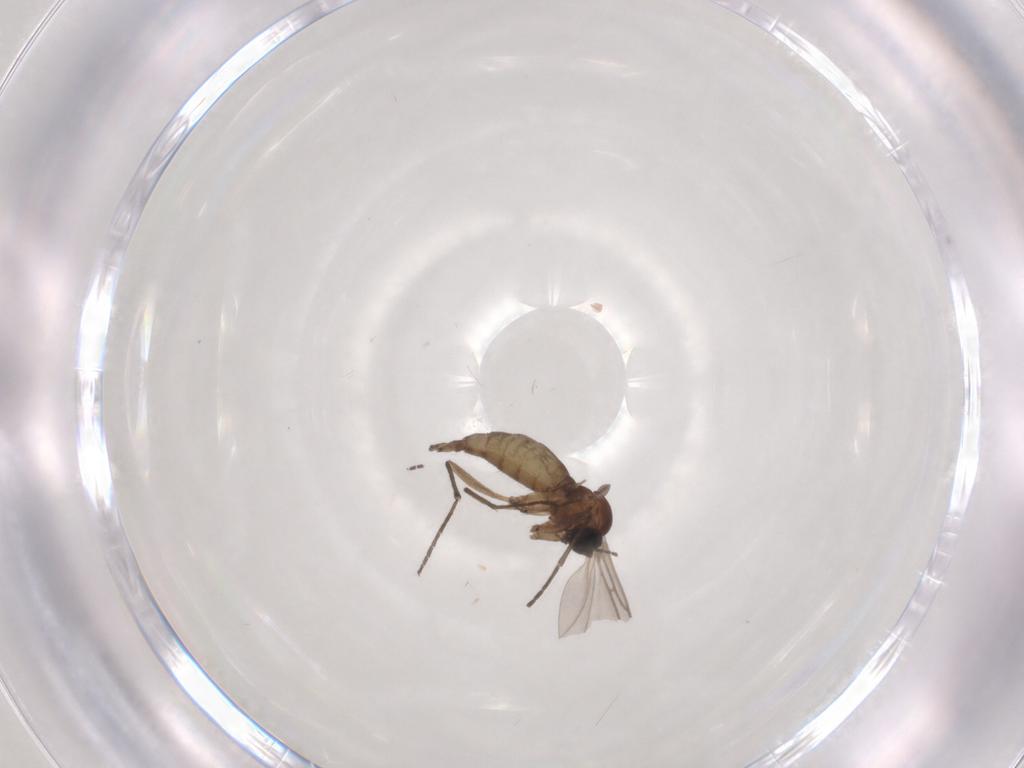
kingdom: Animalia
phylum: Arthropoda
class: Insecta
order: Diptera
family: Sciaridae
